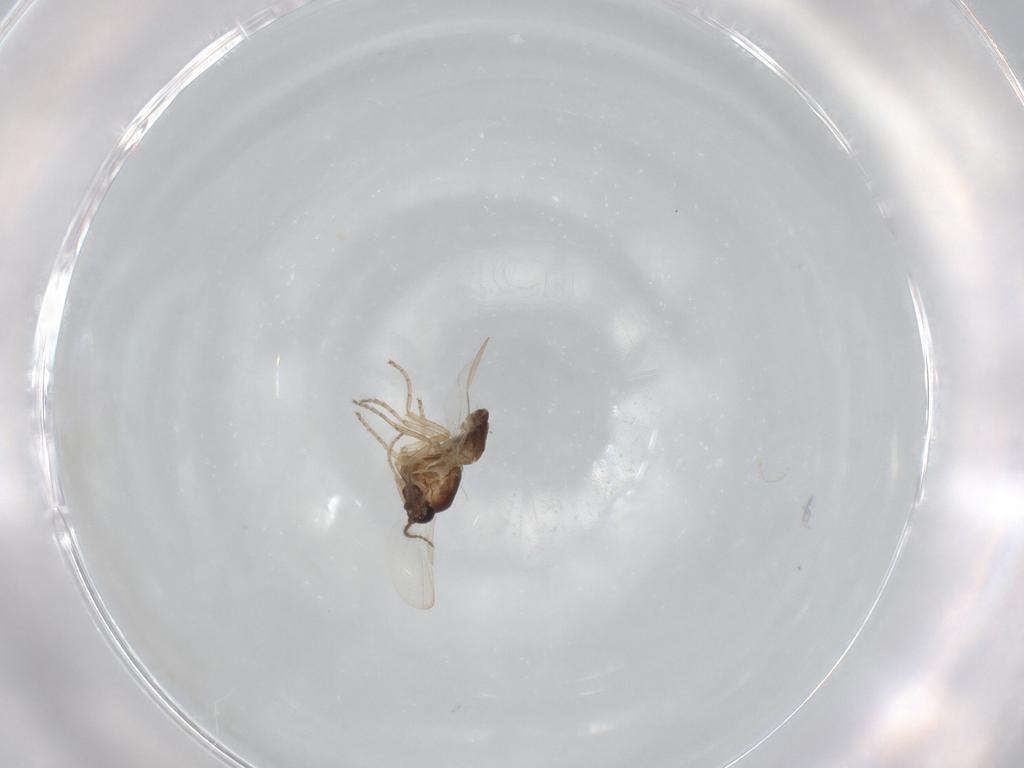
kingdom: Animalia
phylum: Arthropoda
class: Insecta
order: Diptera
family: Ceratopogonidae
